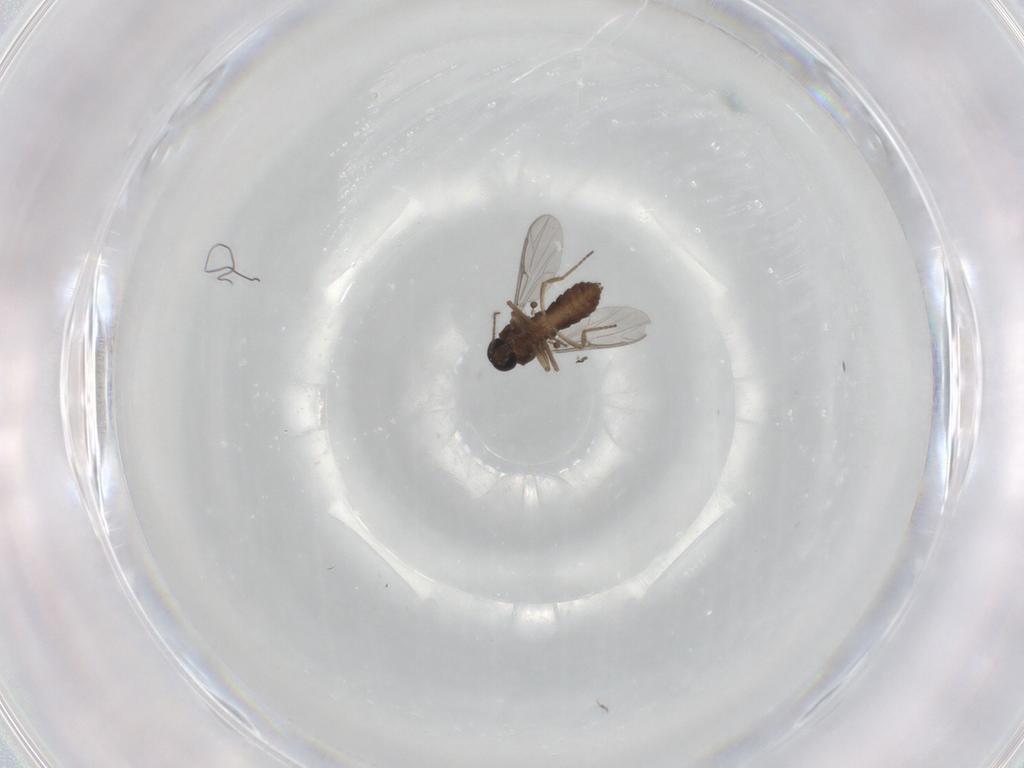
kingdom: Animalia
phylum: Arthropoda
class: Insecta
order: Diptera
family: Ceratopogonidae
